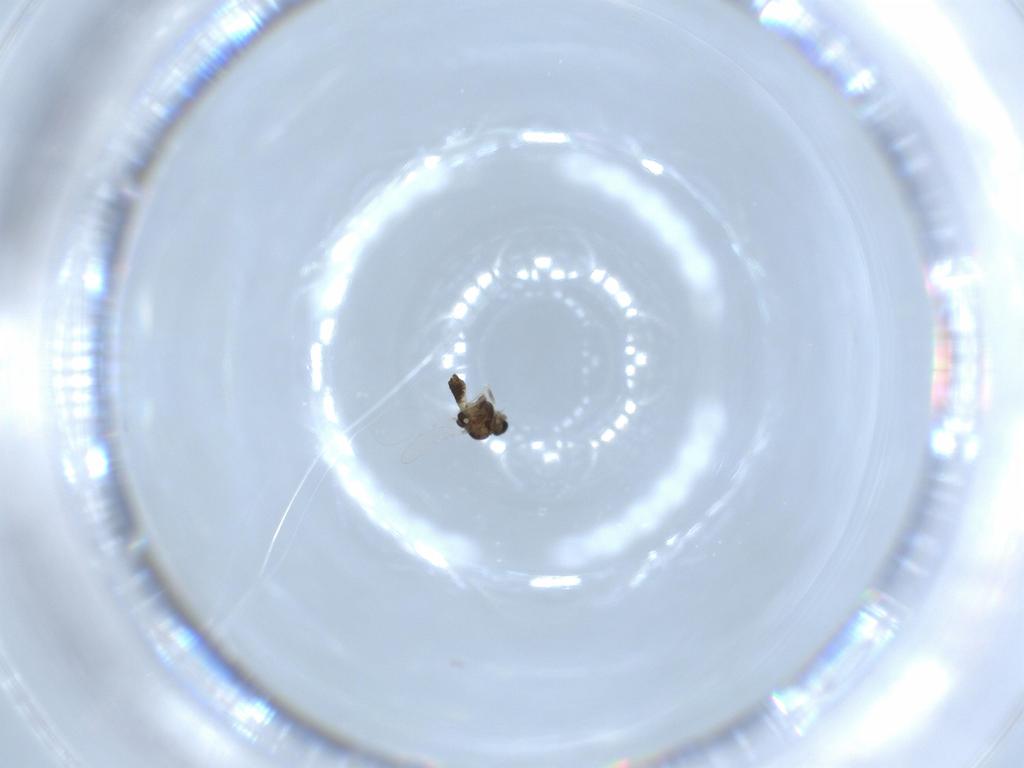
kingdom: Animalia
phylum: Arthropoda
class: Insecta
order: Diptera
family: Chironomidae
